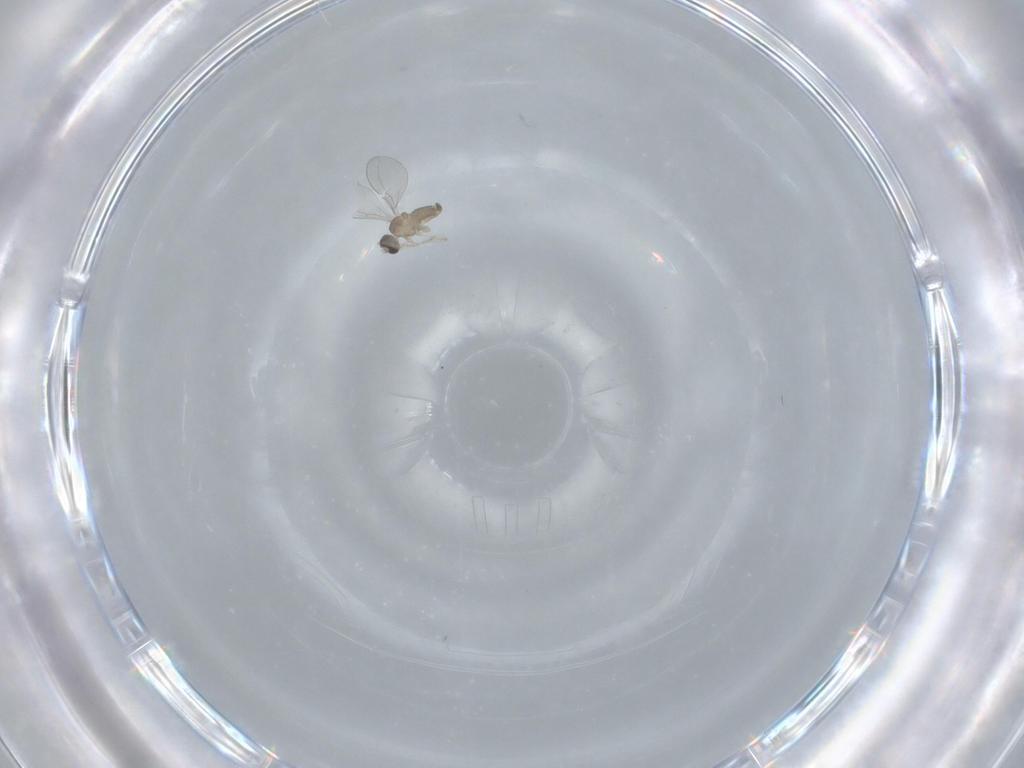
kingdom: Animalia
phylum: Arthropoda
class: Insecta
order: Diptera
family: Cecidomyiidae
